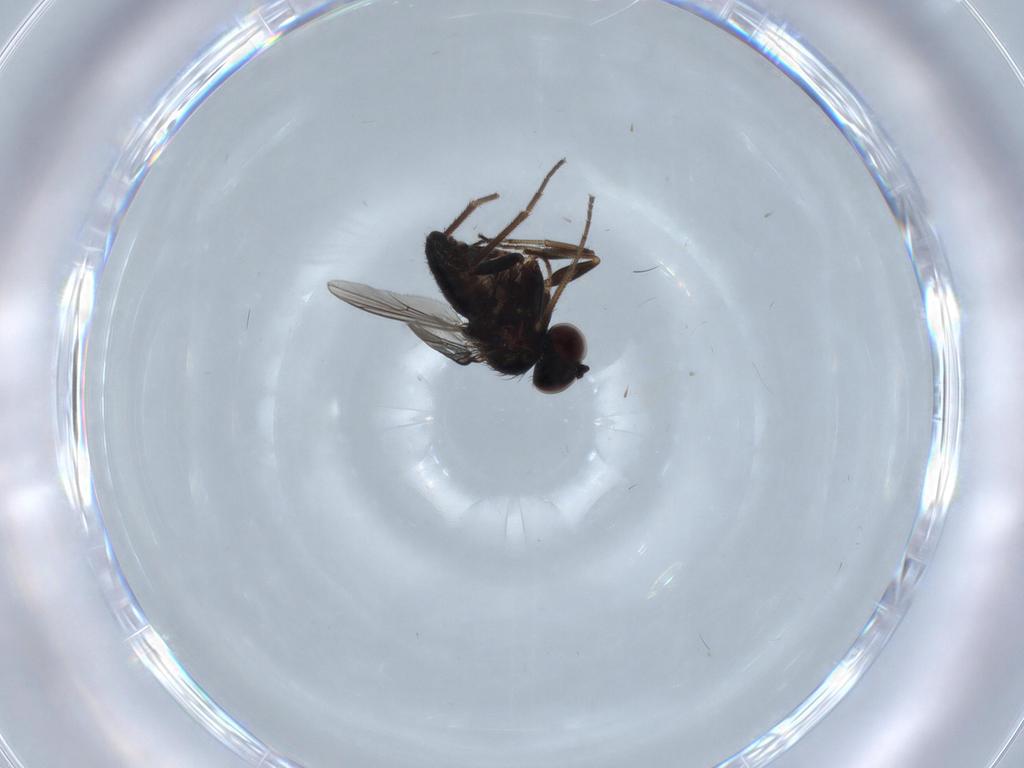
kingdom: Animalia
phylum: Arthropoda
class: Insecta
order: Diptera
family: Dolichopodidae
